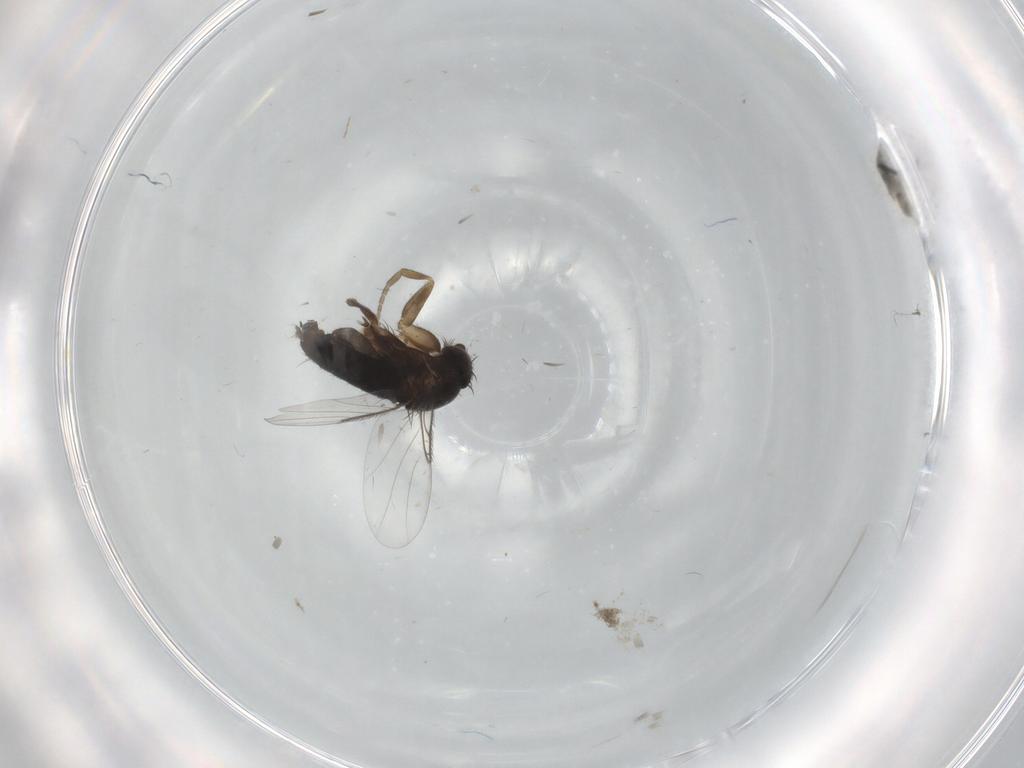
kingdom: Animalia
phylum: Arthropoda
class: Insecta
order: Diptera
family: Phoridae
